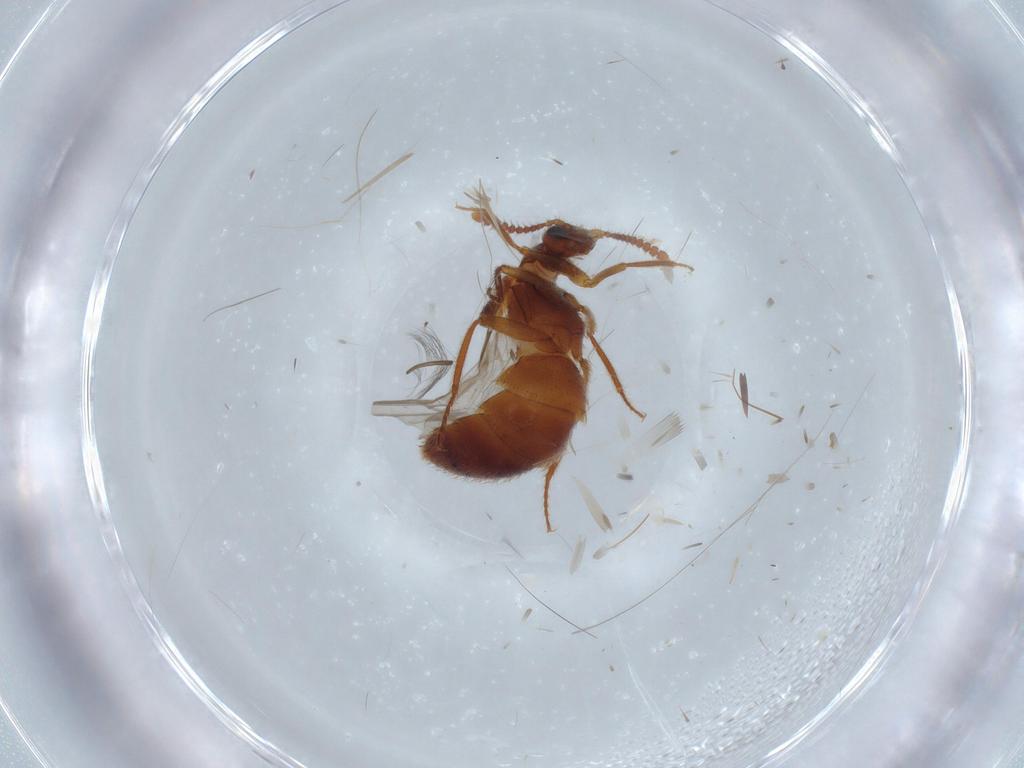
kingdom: Animalia
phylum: Arthropoda
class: Insecta
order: Coleoptera
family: Staphylinidae
